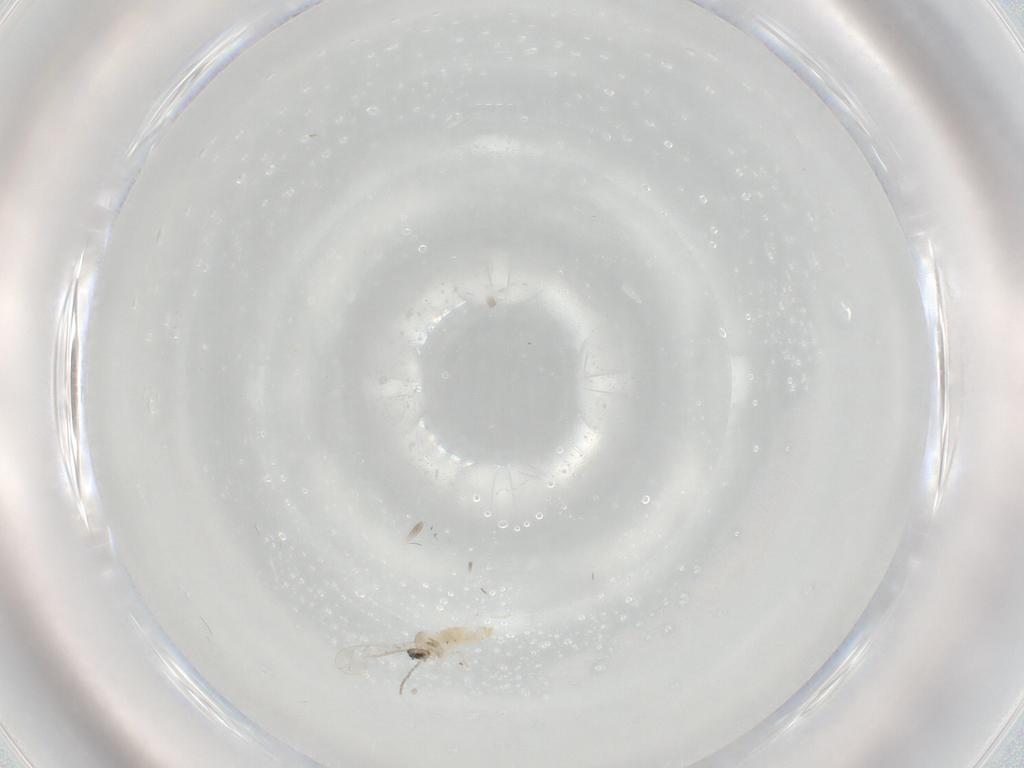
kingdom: Animalia
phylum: Arthropoda
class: Insecta
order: Diptera
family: Cecidomyiidae
